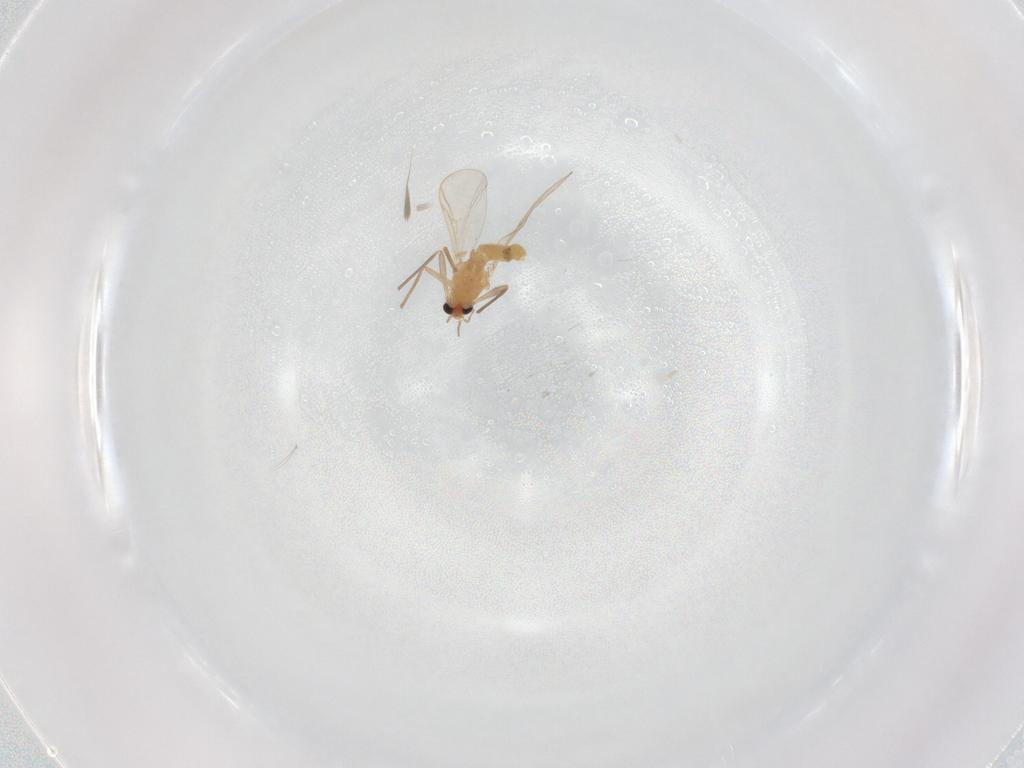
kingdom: Animalia
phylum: Arthropoda
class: Insecta
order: Diptera
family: Chironomidae
